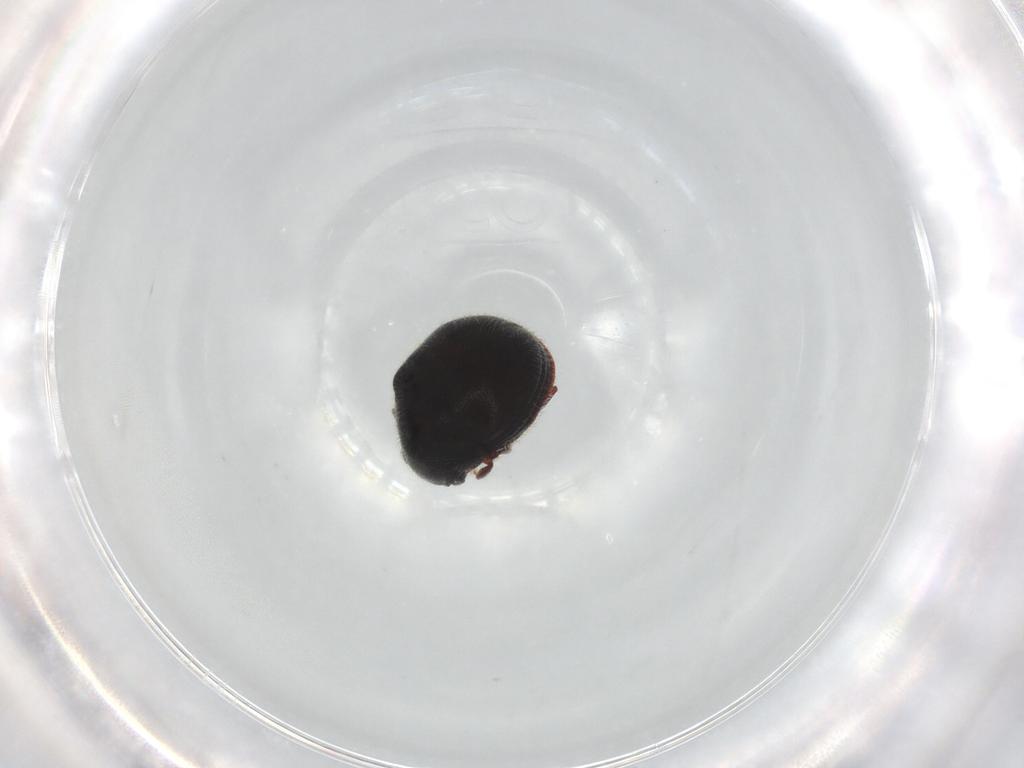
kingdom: Animalia
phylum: Arthropoda
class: Insecta
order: Coleoptera
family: Ptinidae
